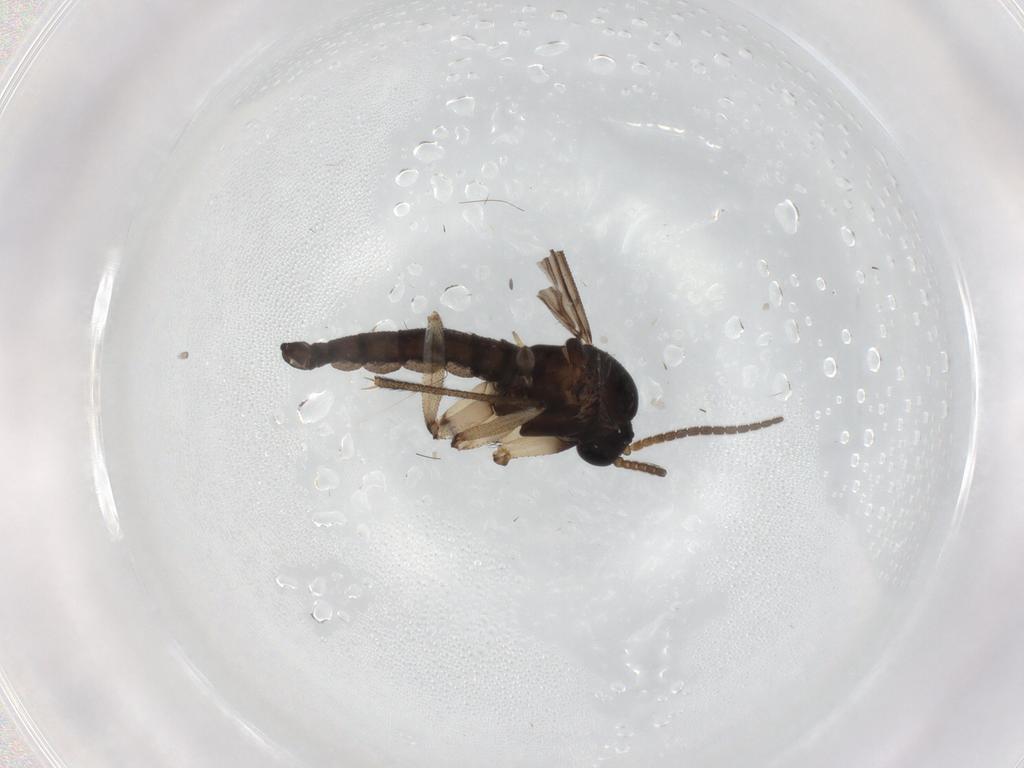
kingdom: Animalia
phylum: Arthropoda
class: Insecta
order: Diptera
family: Sciaridae
